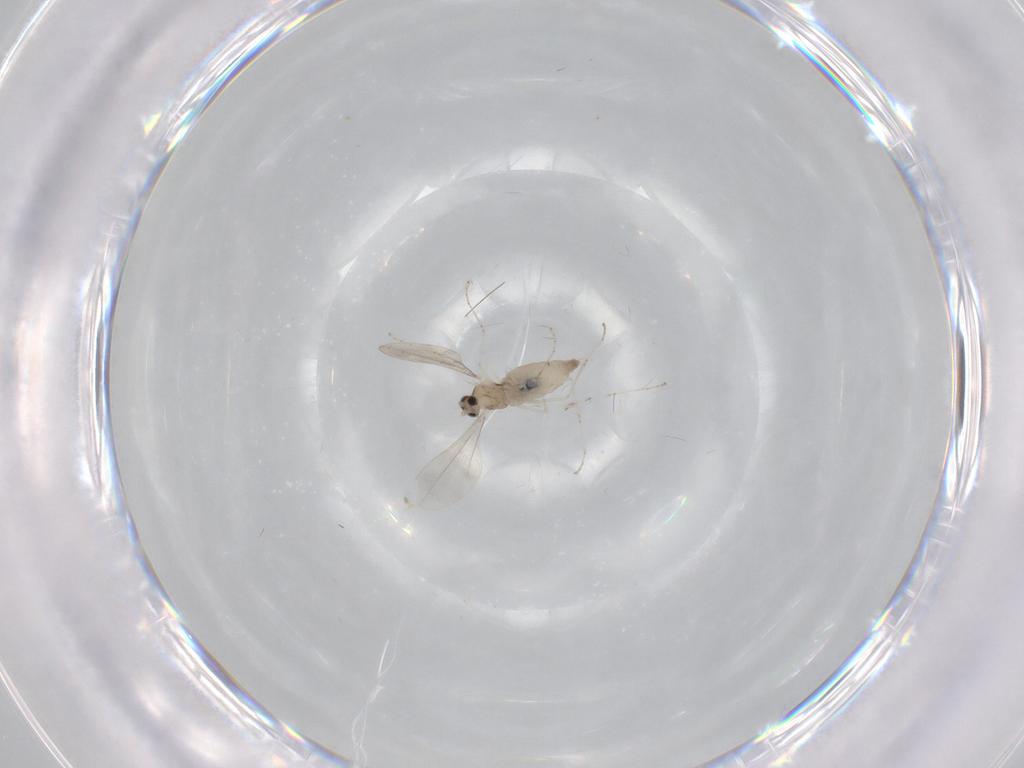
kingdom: Animalia
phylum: Arthropoda
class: Insecta
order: Diptera
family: Cecidomyiidae
